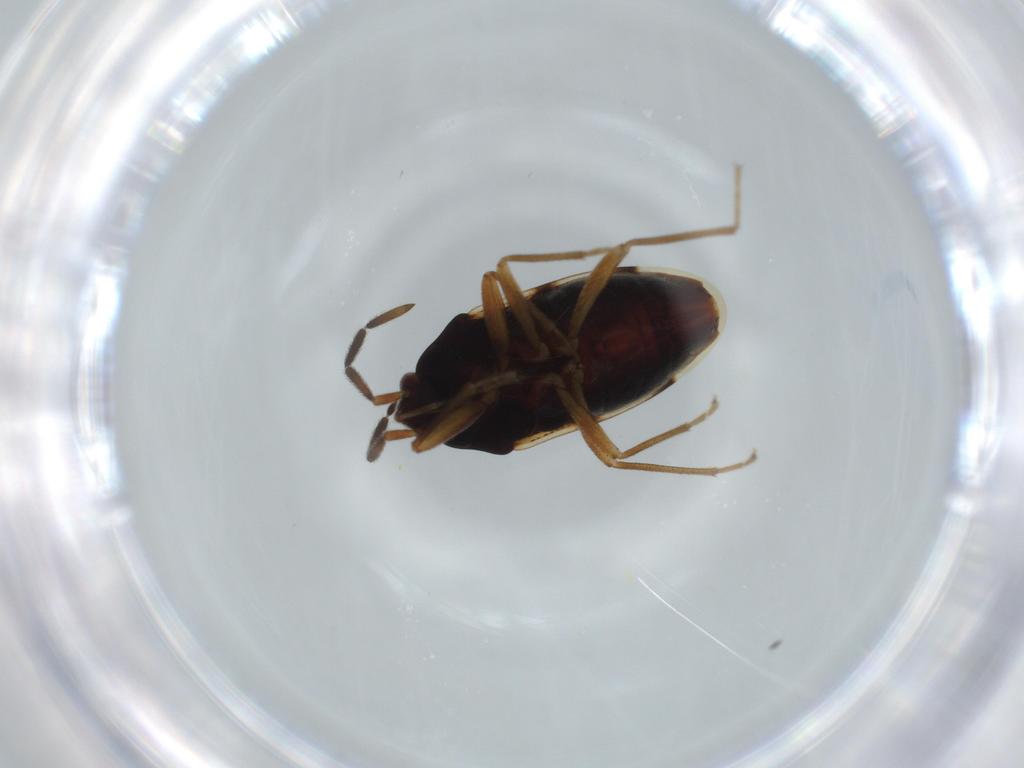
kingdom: Animalia
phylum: Arthropoda
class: Insecta
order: Hemiptera
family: Rhyparochromidae
